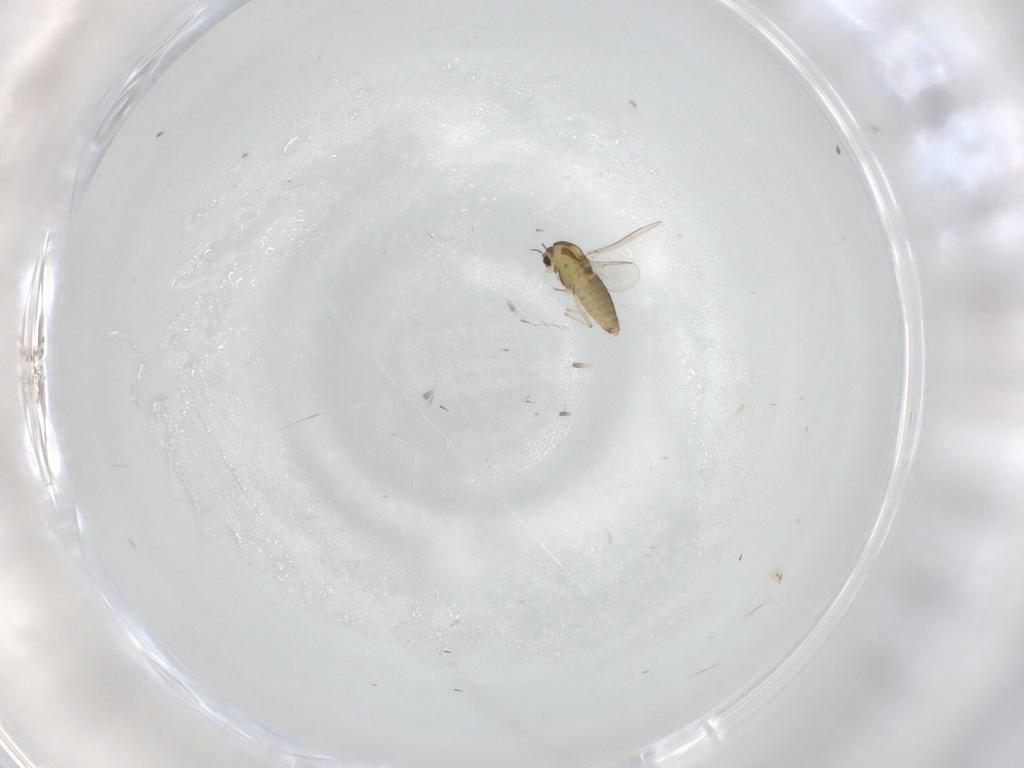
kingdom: Animalia
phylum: Arthropoda
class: Insecta
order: Diptera
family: Chironomidae
